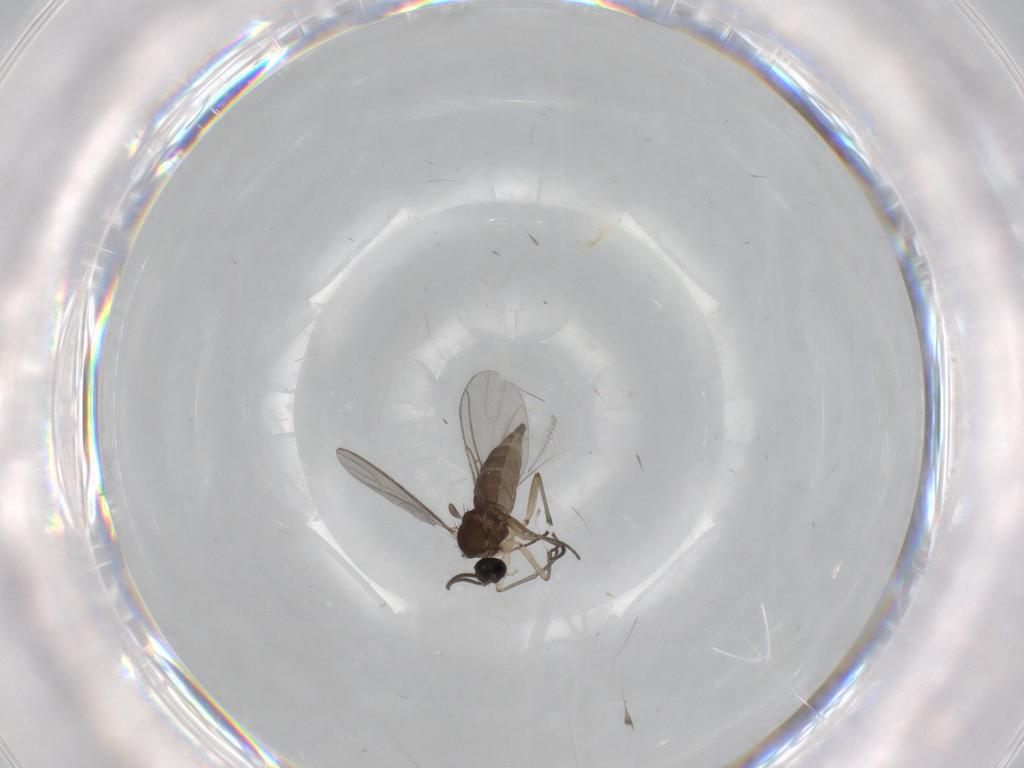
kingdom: Animalia
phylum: Arthropoda
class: Insecta
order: Diptera
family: Sciaridae
